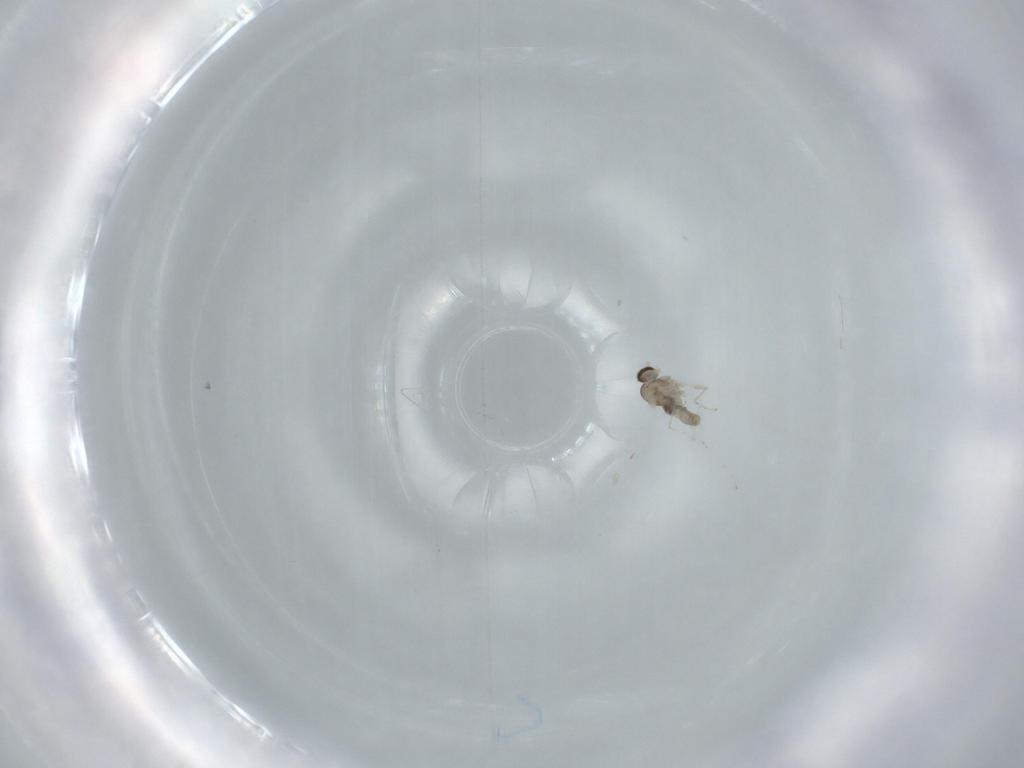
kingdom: Animalia
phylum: Arthropoda
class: Insecta
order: Diptera
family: Cecidomyiidae
